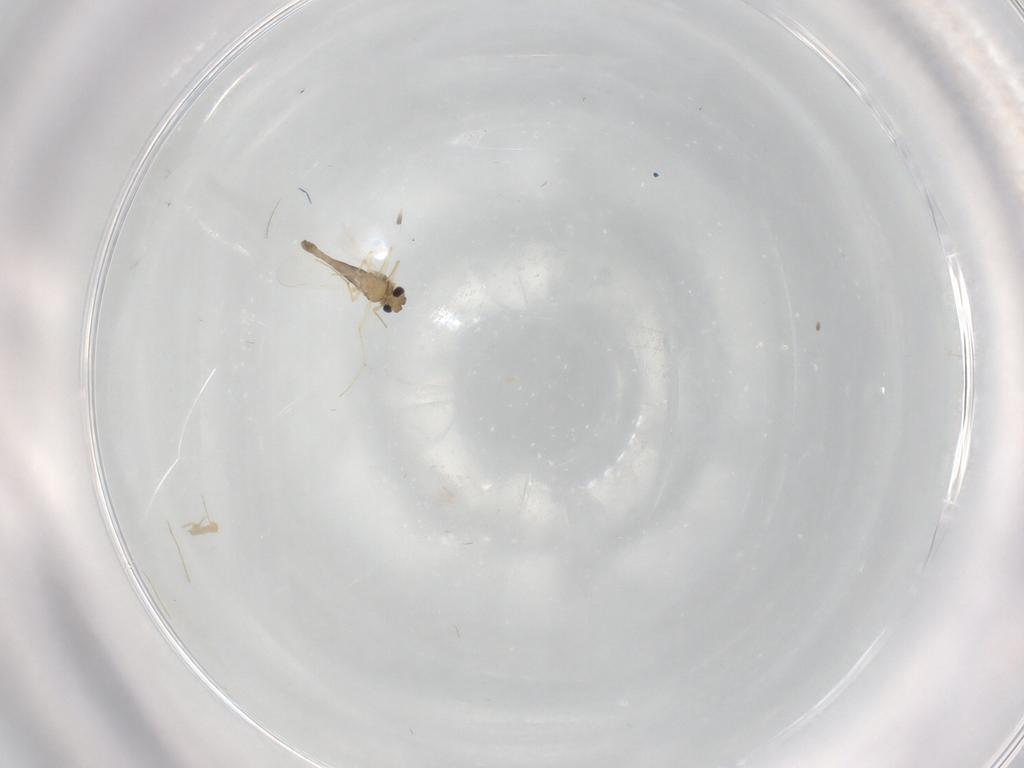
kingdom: Animalia
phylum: Arthropoda
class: Insecta
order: Diptera
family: Chironomidae
